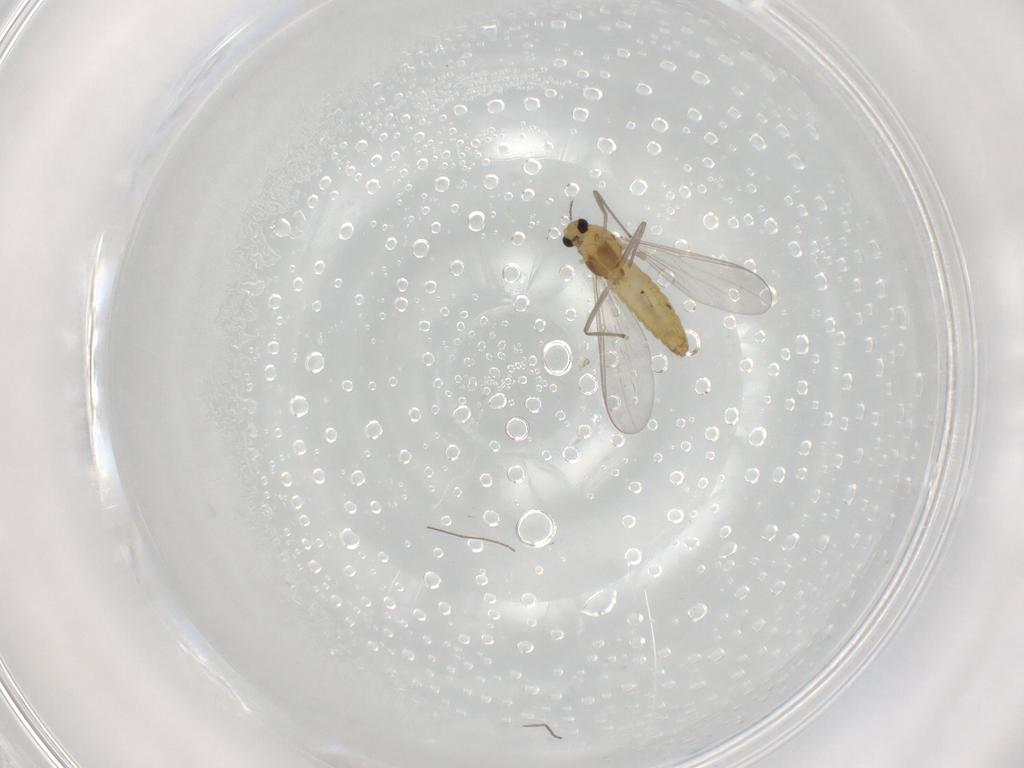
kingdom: Animalia
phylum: Arthropoda
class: Insecta
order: Diptera
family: Chironomidae
